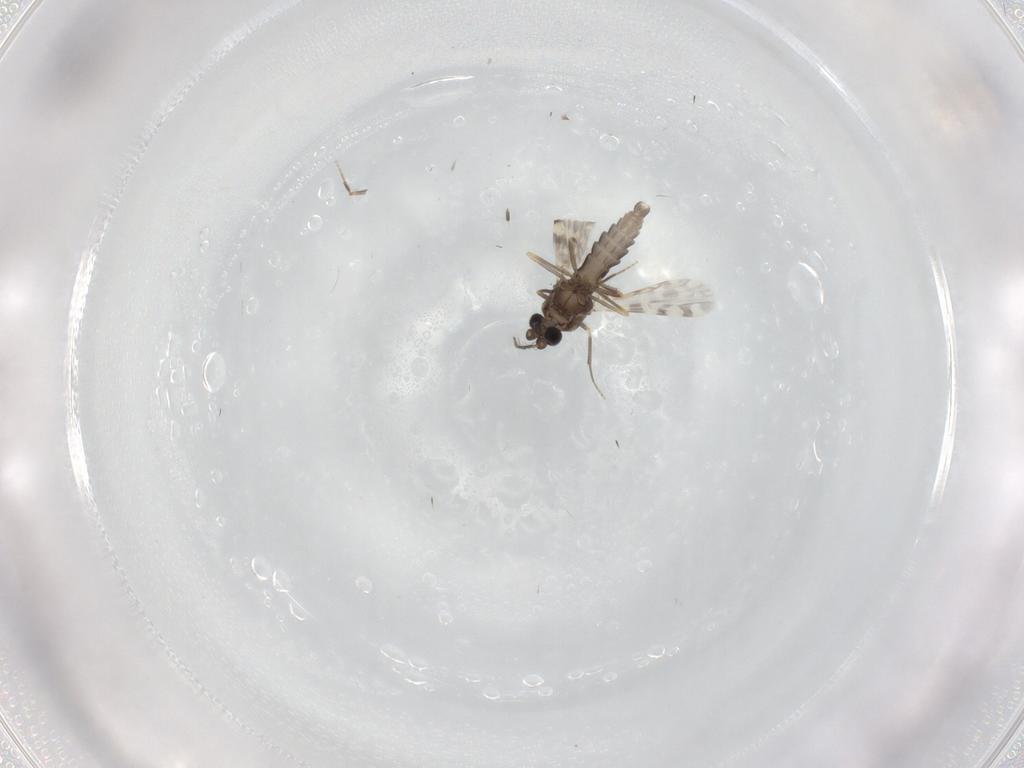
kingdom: Animalia
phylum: Arthropoda
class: Insecta
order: Diptera
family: Ceratopogonidae
